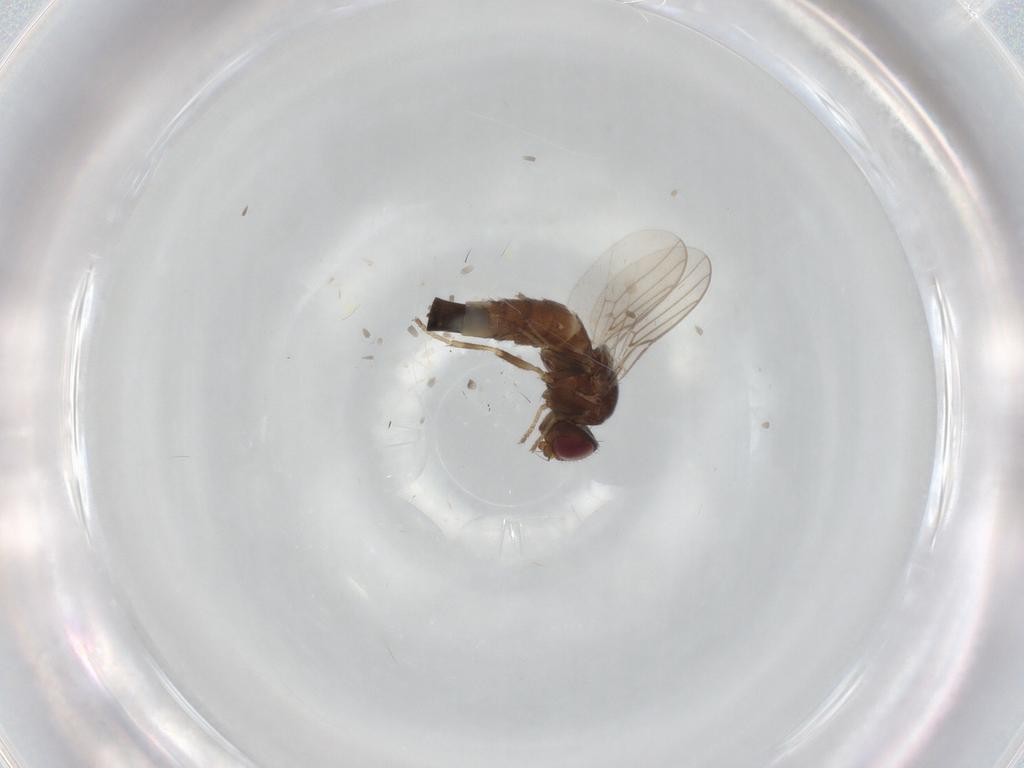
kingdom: Animalia
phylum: Arthropoda
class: Insecta
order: Diptera
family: Chloropidae
